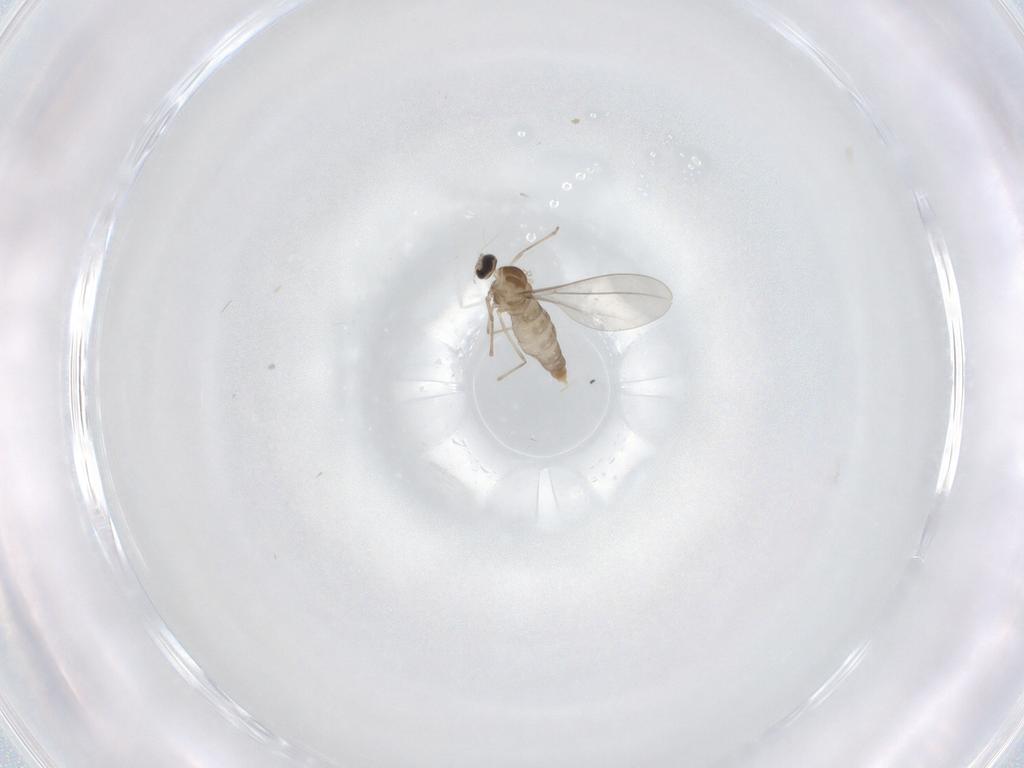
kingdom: Animalia
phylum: Arthropoda
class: Insecta
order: Diptera
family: Cecidomyiidae
